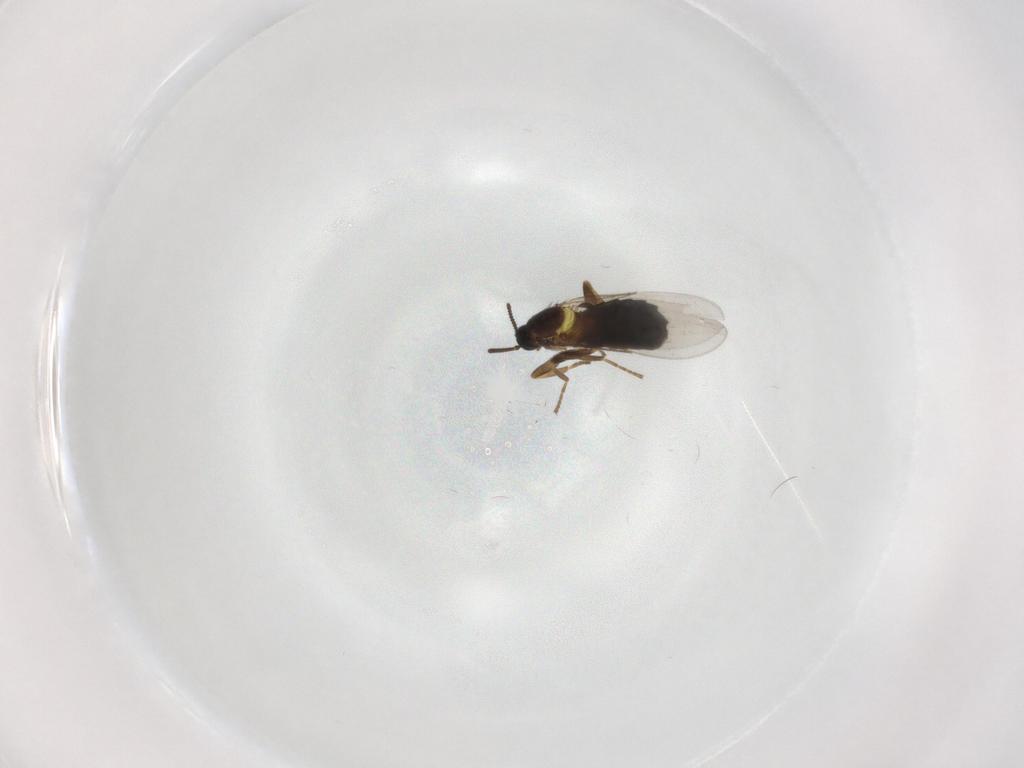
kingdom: Animalia
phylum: Arthropoda
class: Insecta
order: Diptera
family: Scatopsidae
